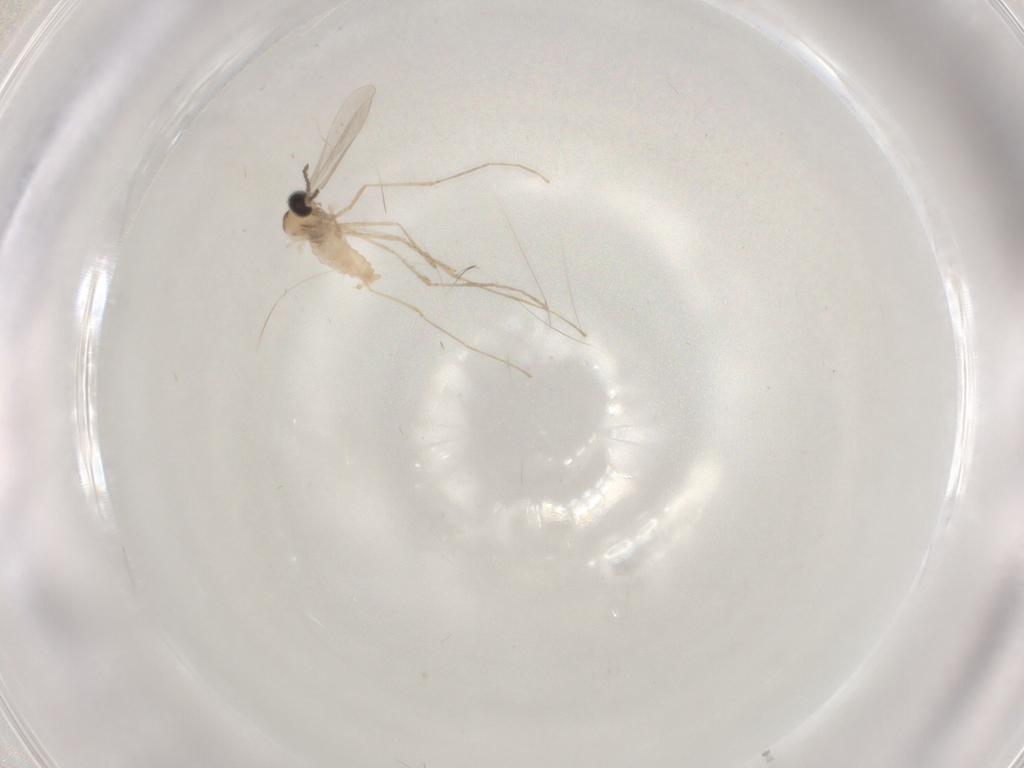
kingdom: Animalia
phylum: Arthropoda
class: Insecta
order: Diptera
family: Cecidomyiidae
